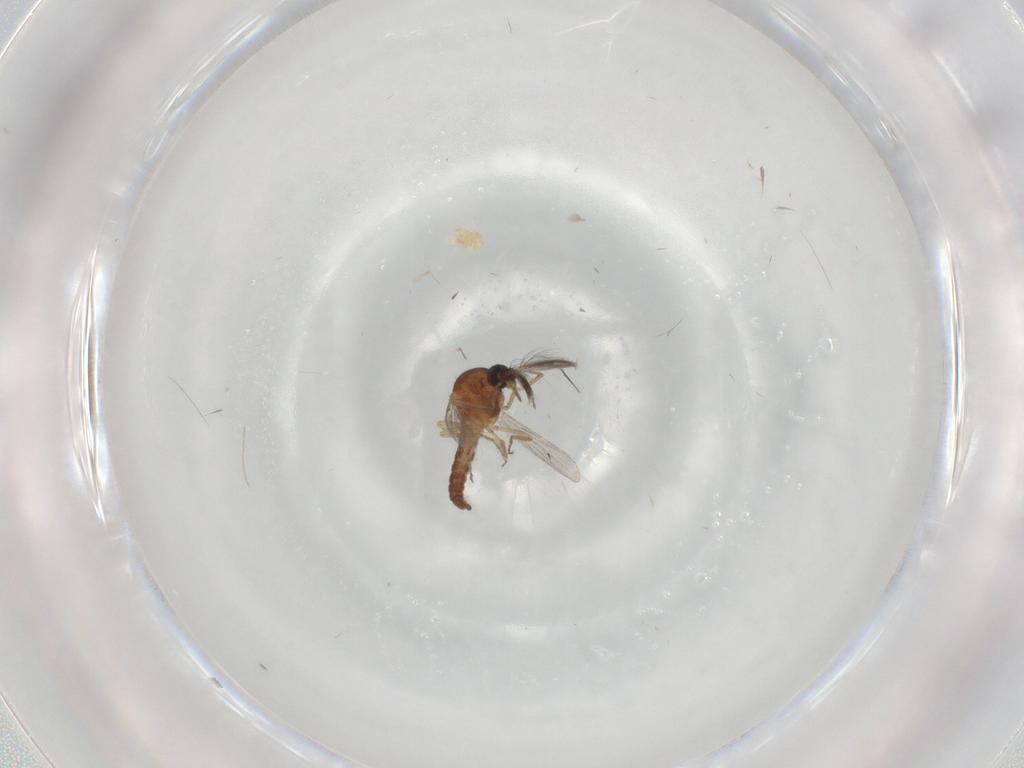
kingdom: Animalia
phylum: Arthropoda
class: Insecta
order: Diptera
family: Ceratopogonidae
